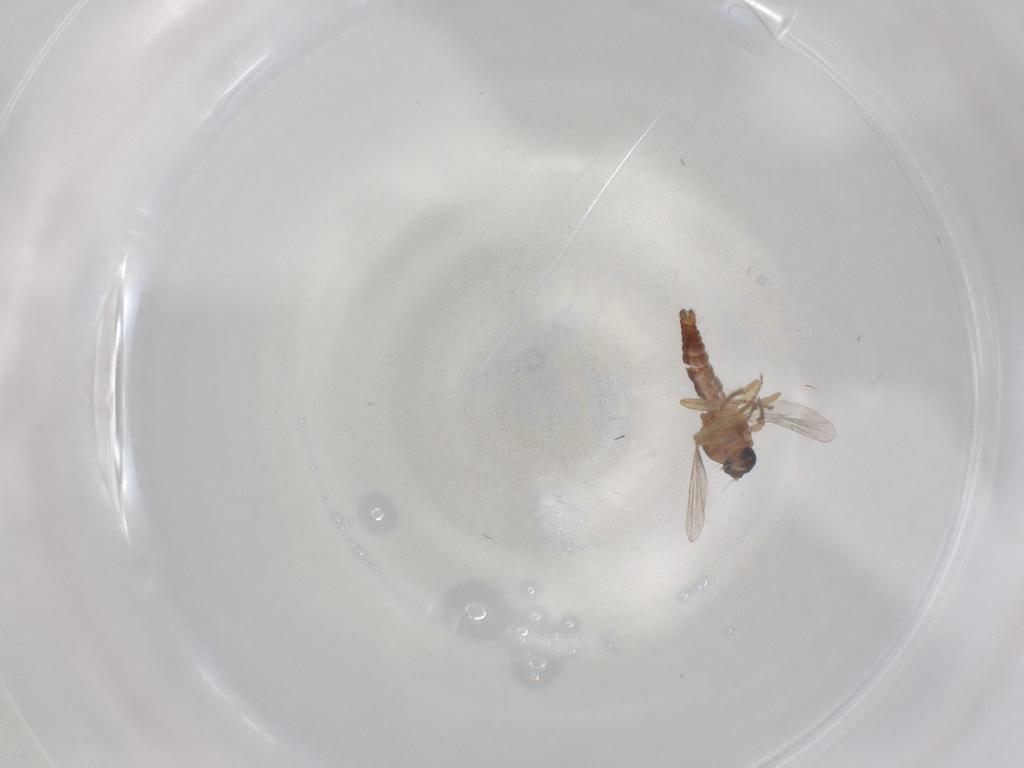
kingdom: Animalia
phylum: Arthropoda
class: Insecta
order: Diptera
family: Ceratopogonidae
